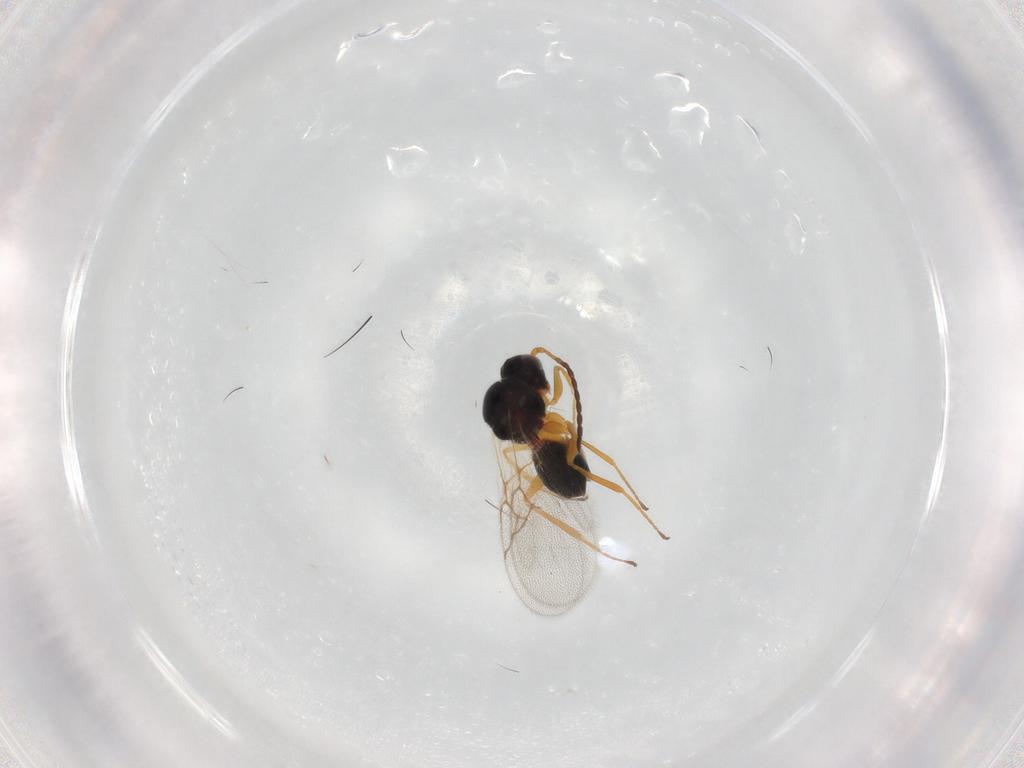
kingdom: Animalia
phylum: Arthropoda
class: Insecta
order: Hymenoptera
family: Figitidae
